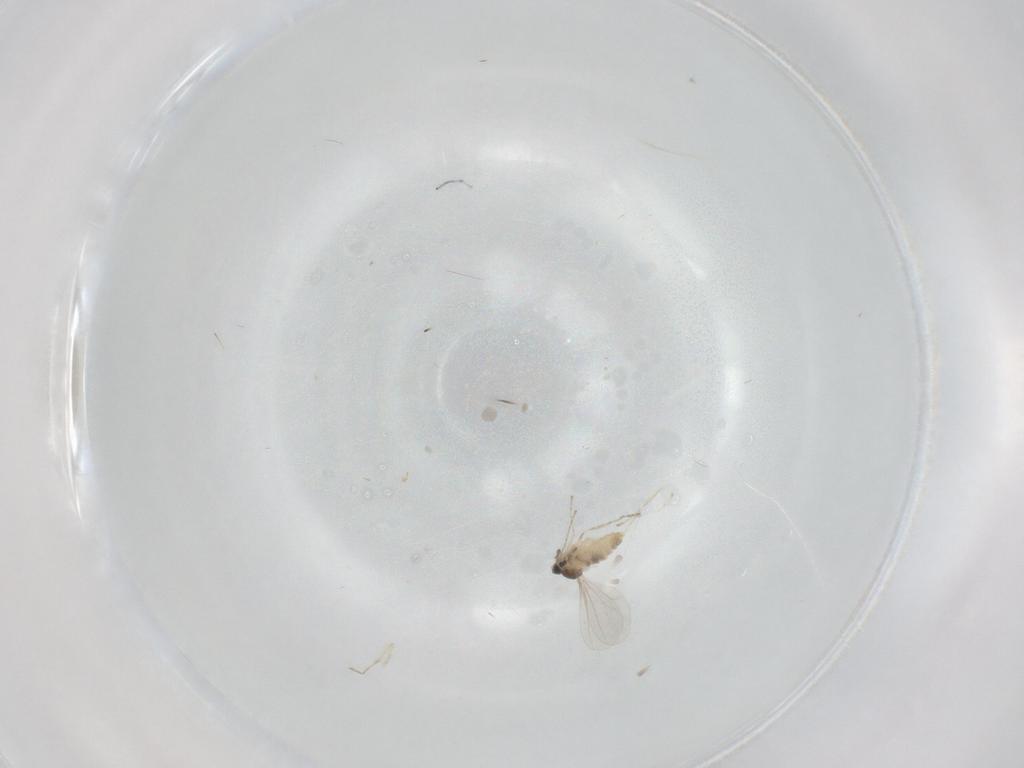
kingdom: Animalia
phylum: Arthropoda
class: Insecta
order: Diptera
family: Cecidomyiidae
